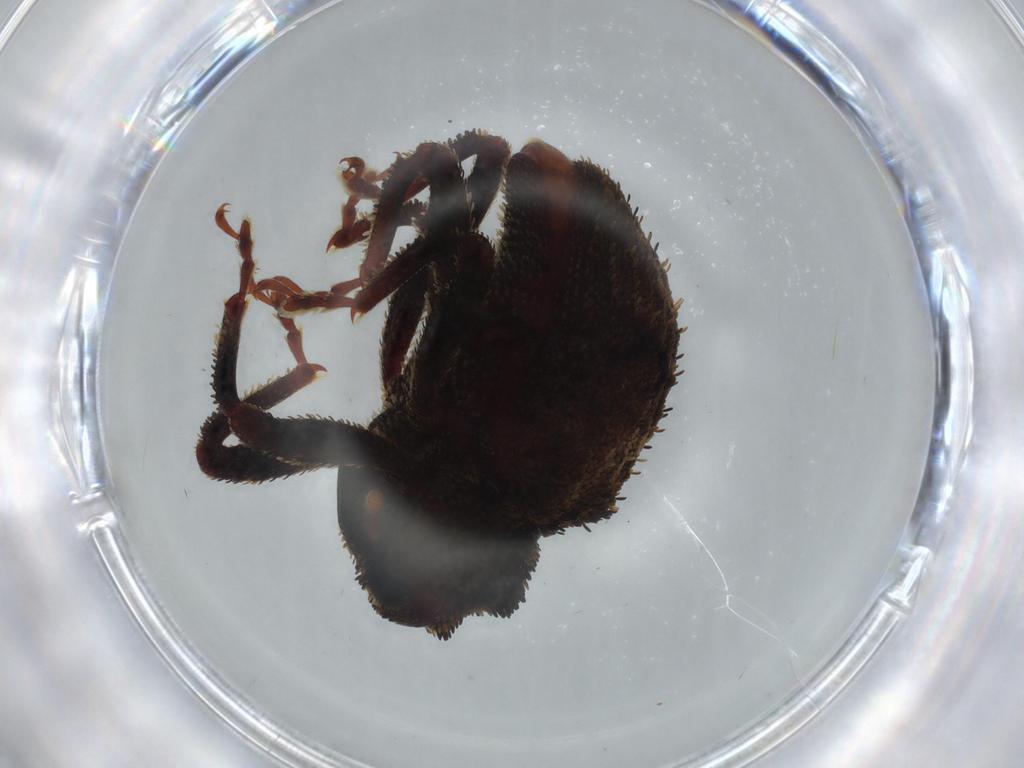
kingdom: Animalia
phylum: Arthropoda
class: Insecta
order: Coleoptera
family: Curculionidae
